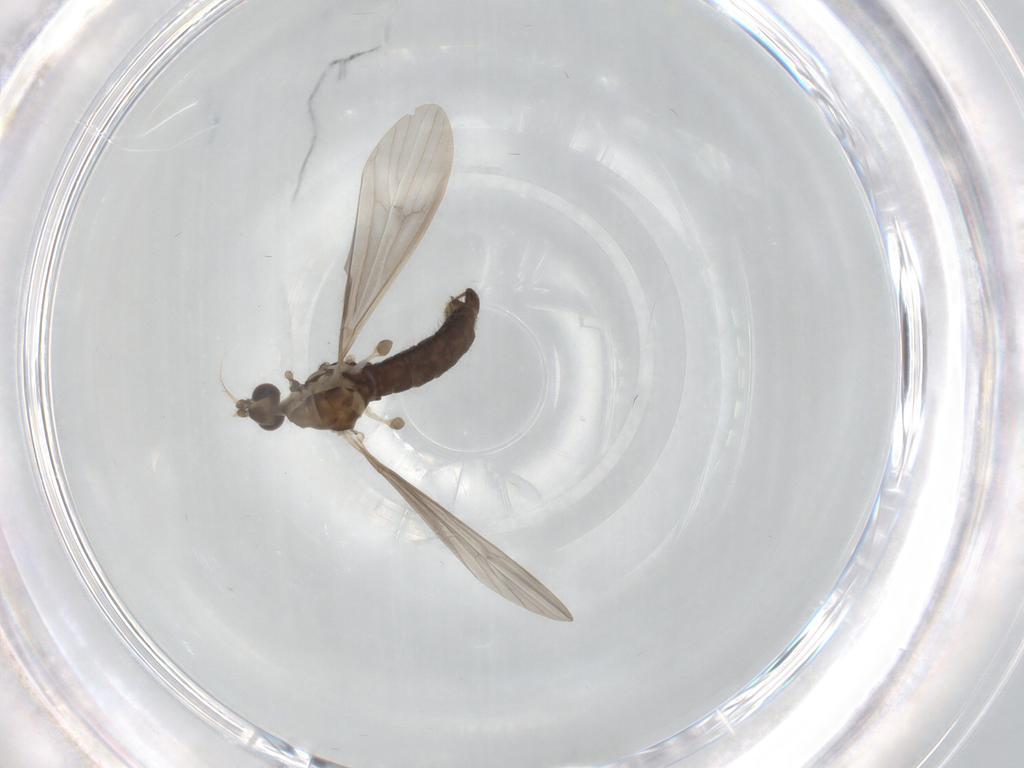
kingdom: Animalia
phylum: Arthropoda
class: Insecta
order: Diptera
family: Limoniidae
